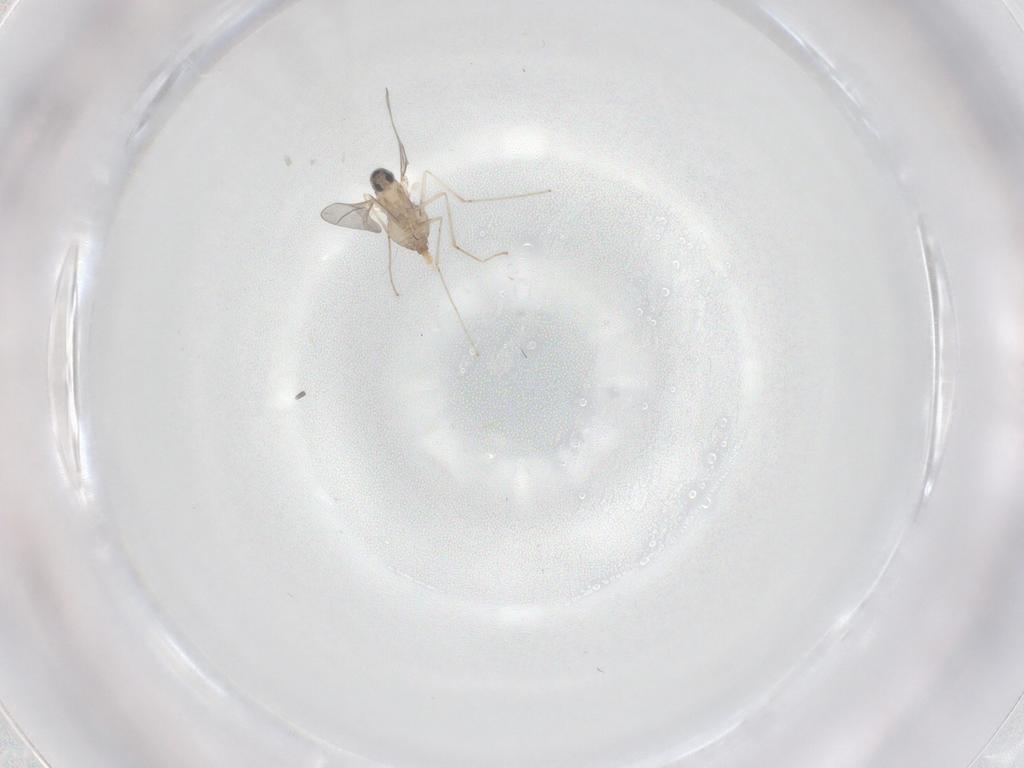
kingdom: Animalia
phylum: Arthropoda
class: Insecta
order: Diptera
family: Cecidomyiidae
